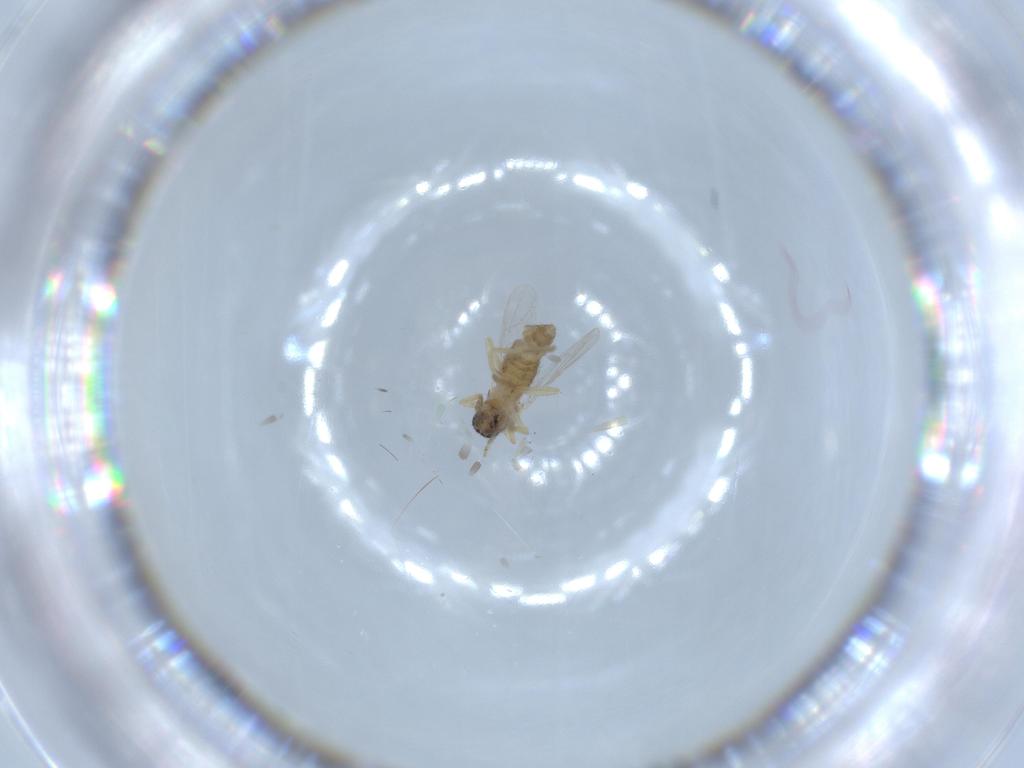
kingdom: Animalia
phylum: Arthropoda
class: Insecta
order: Diptera
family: Ceratopogonidae
